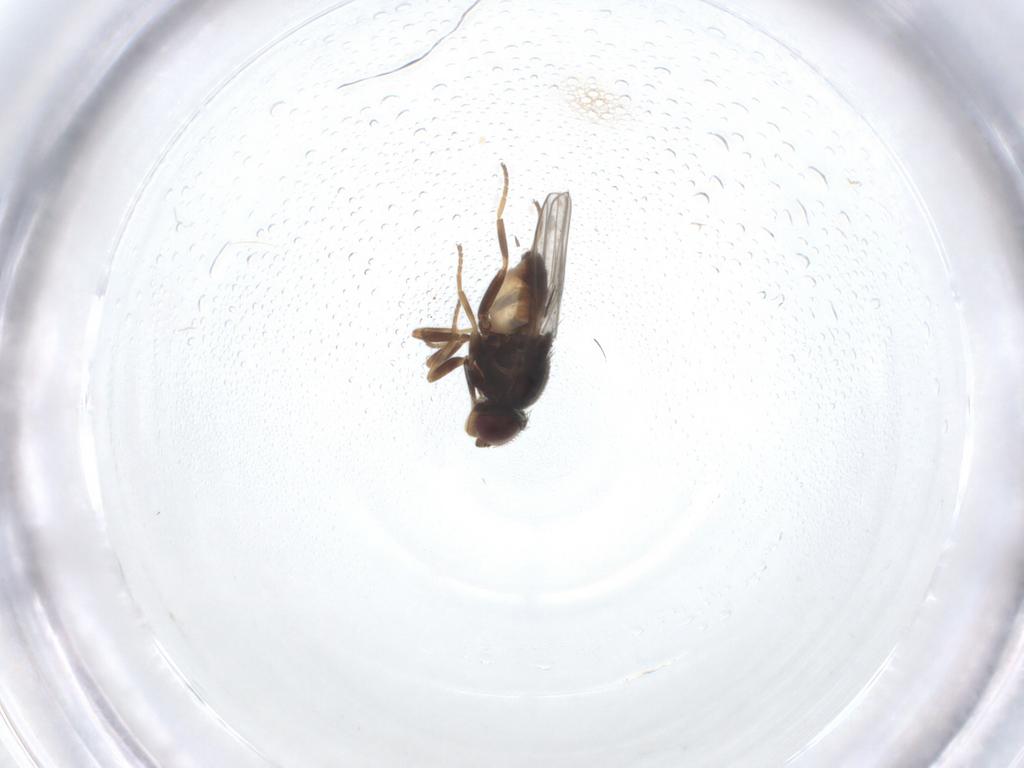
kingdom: Animalia
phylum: Arthropoda
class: Insecta
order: Diptera
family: Chloropidae
